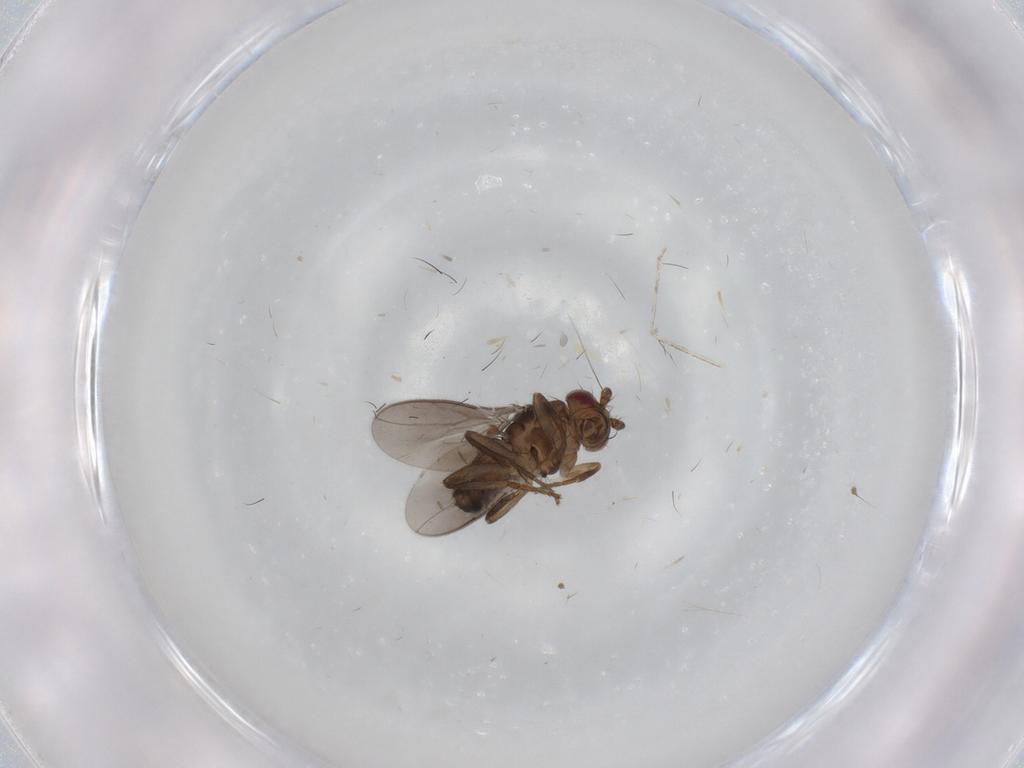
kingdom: Animalia
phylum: Arthropoda
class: Insecta
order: Diptera
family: Sphaeroceridae
